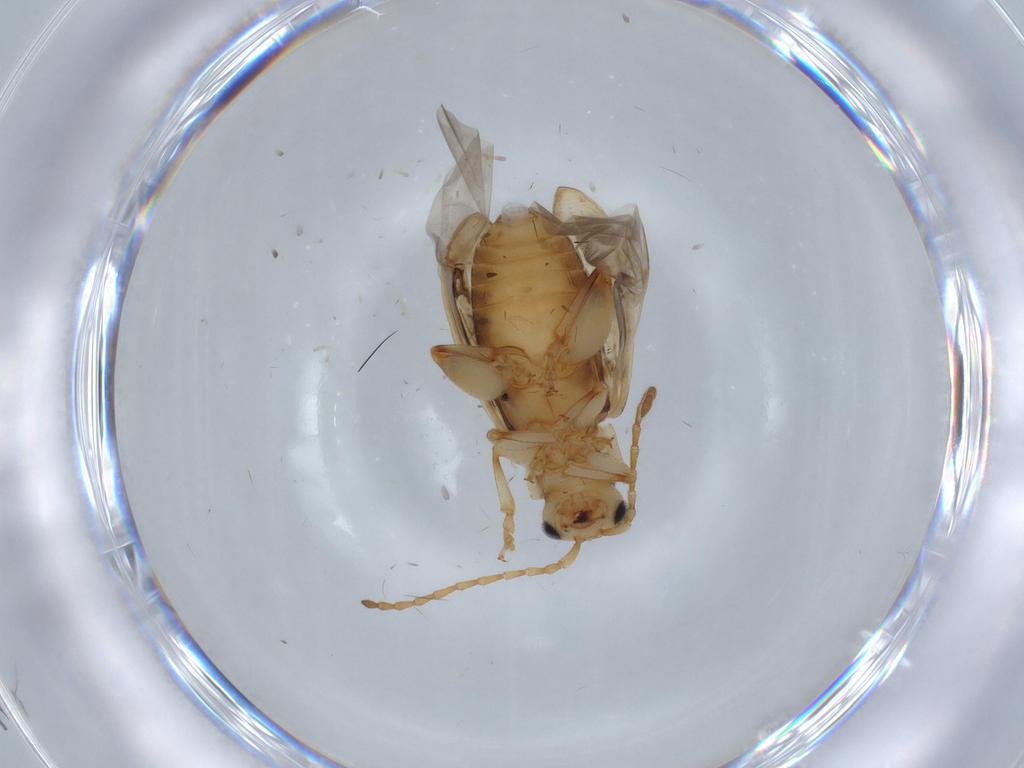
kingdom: Animalia
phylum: Arthropoda
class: Insecta
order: Coleoptera
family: Chrysomelidae
